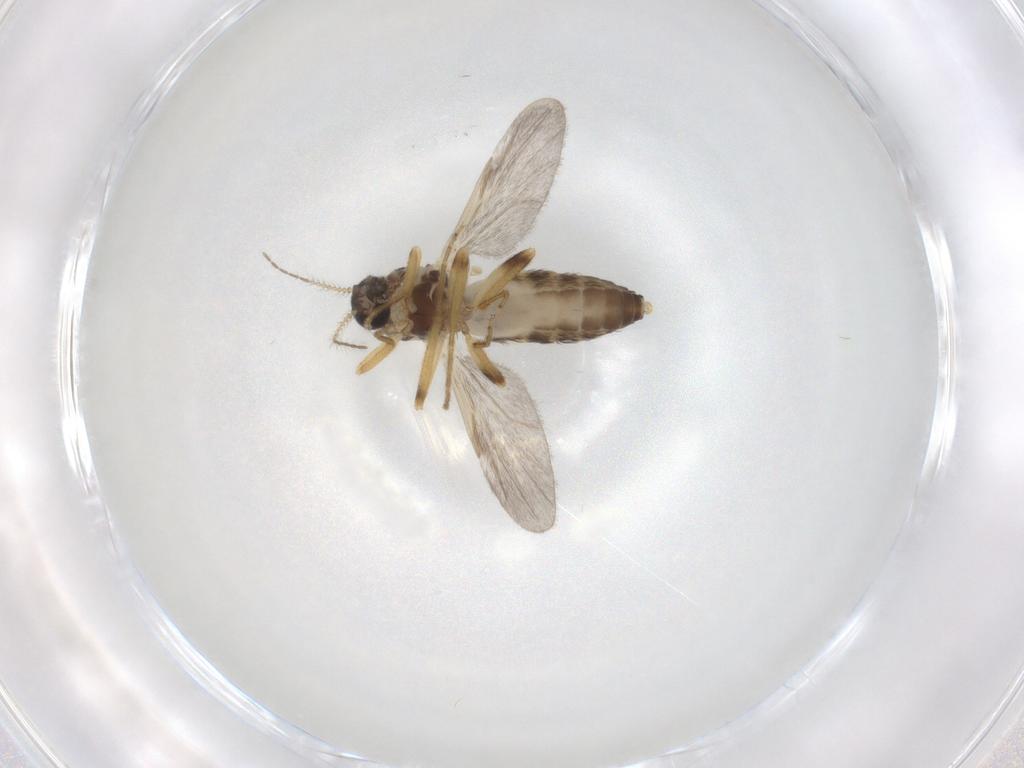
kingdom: Animalia
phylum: Arthropoda
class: Insecta
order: Diptera
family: Ceratopogonidae
